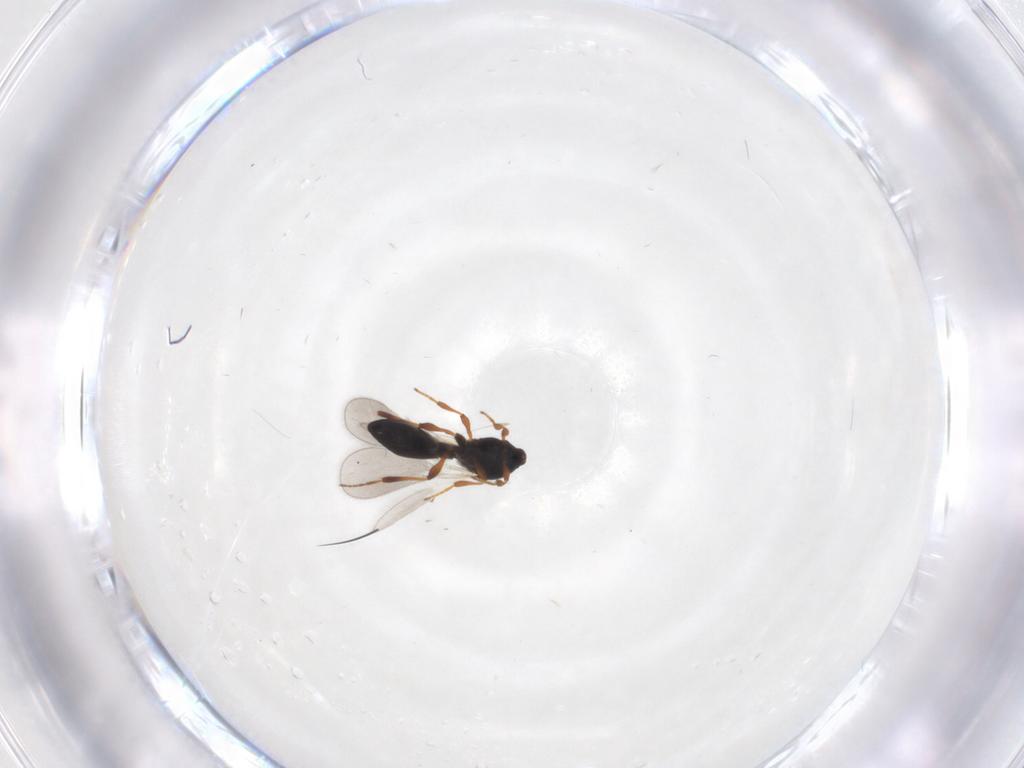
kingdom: Animalia
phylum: Arthropoda
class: Insecta
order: Hymenoptera
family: Platygastridae
